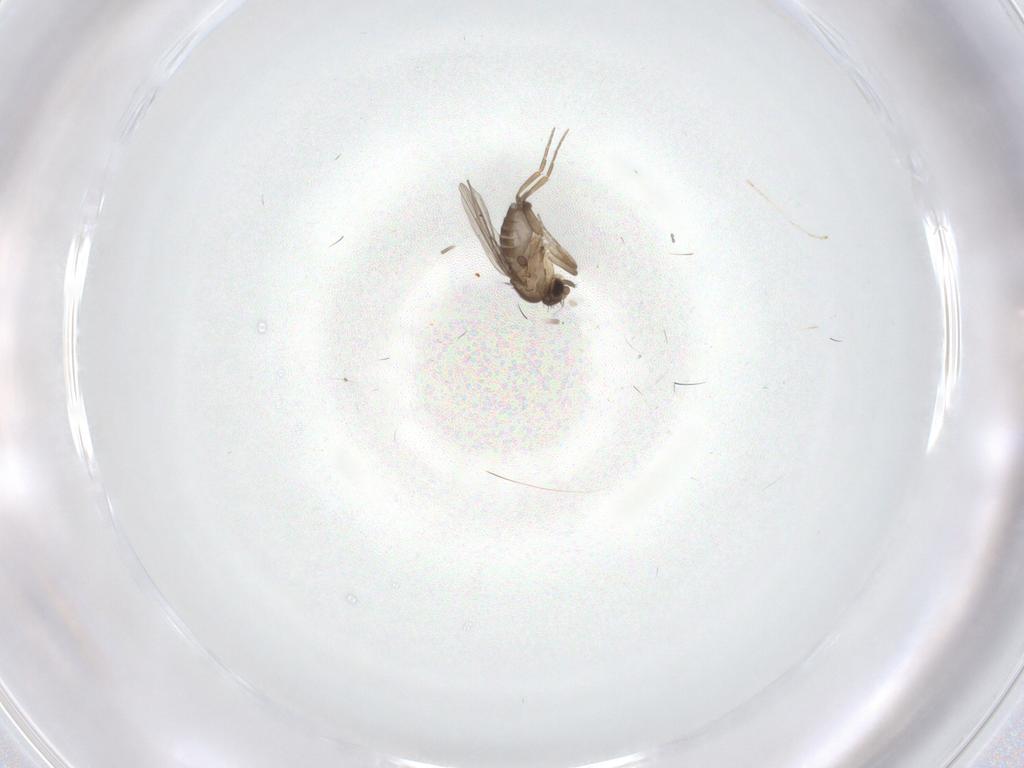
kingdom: Animalia
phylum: Arthropoda
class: Insecta
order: Diptera
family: Phoridae
